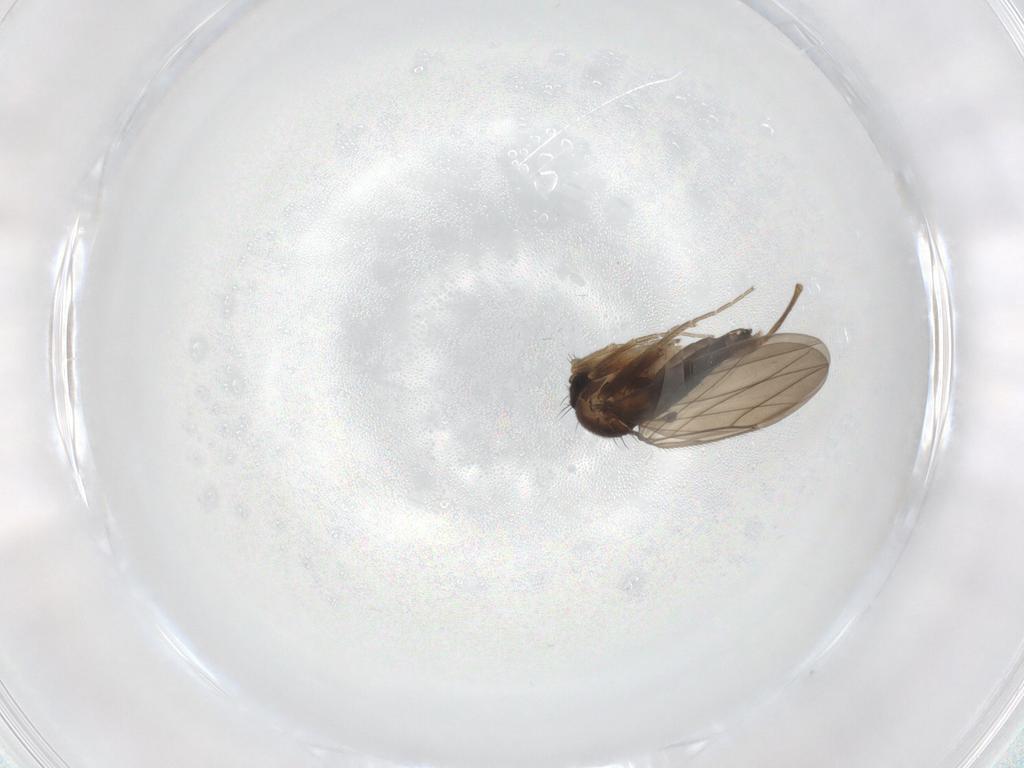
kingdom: Animalia
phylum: Arthropoda
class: Insecta
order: Diptera
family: Phoridae
